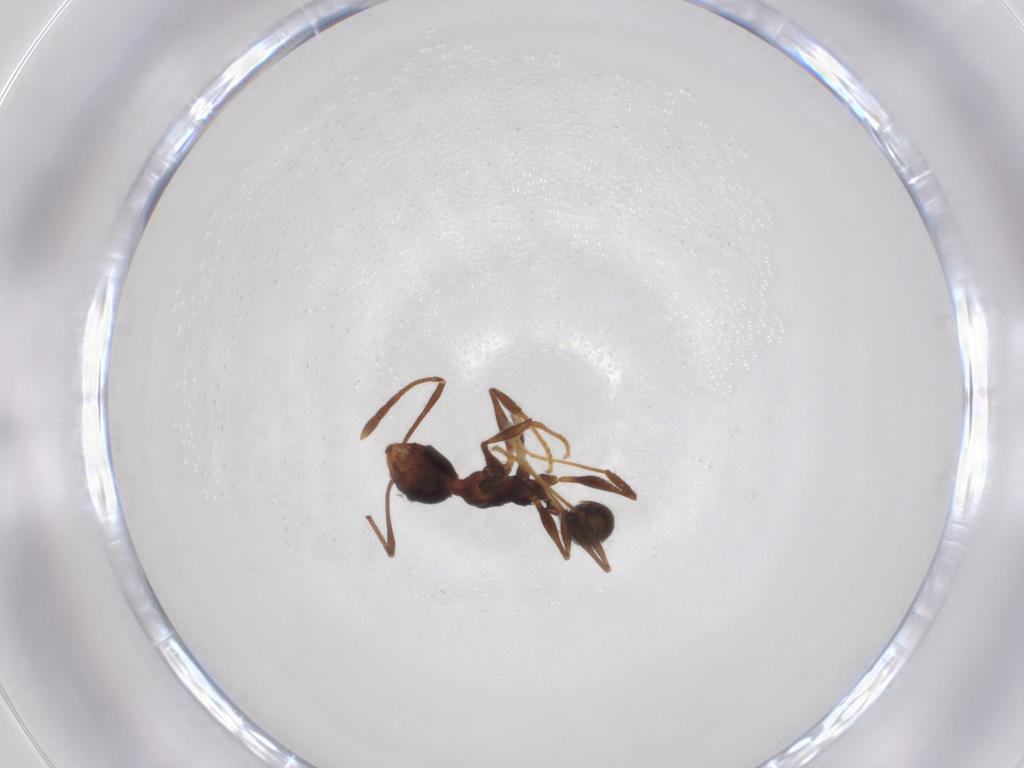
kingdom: Animalia
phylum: Arthropoda
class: Insecta
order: Hymenoptera
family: Formicidae
